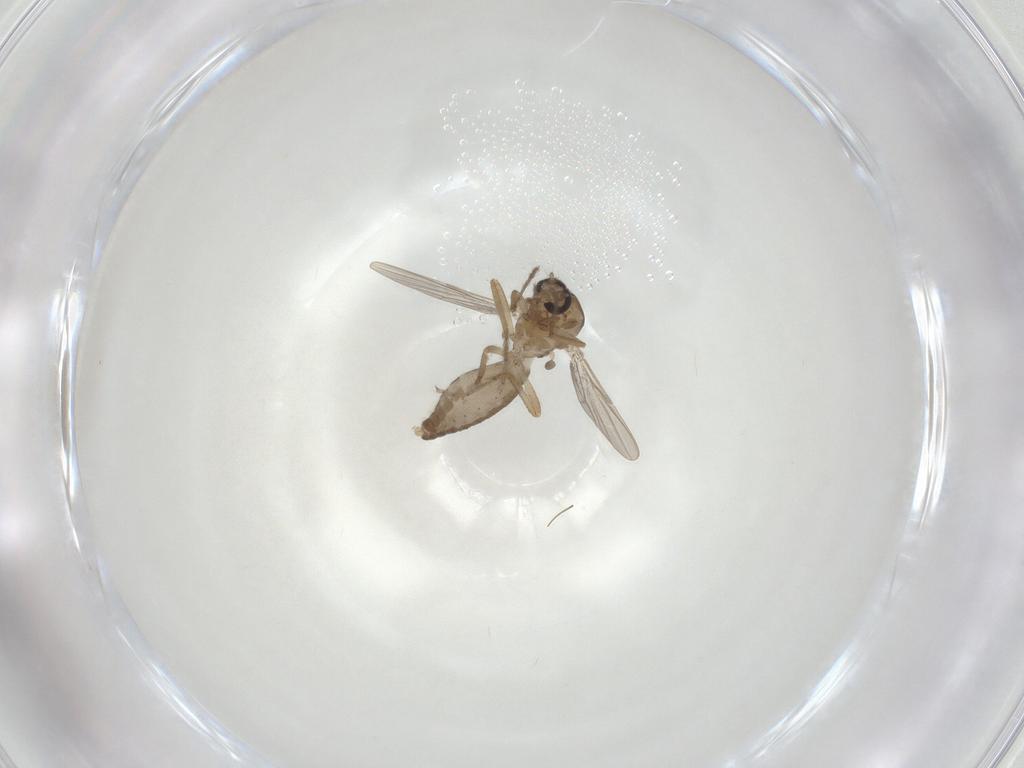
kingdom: Animalia
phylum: Arthropoda
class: Insecta
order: Diptera
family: Ceratopogonidae
